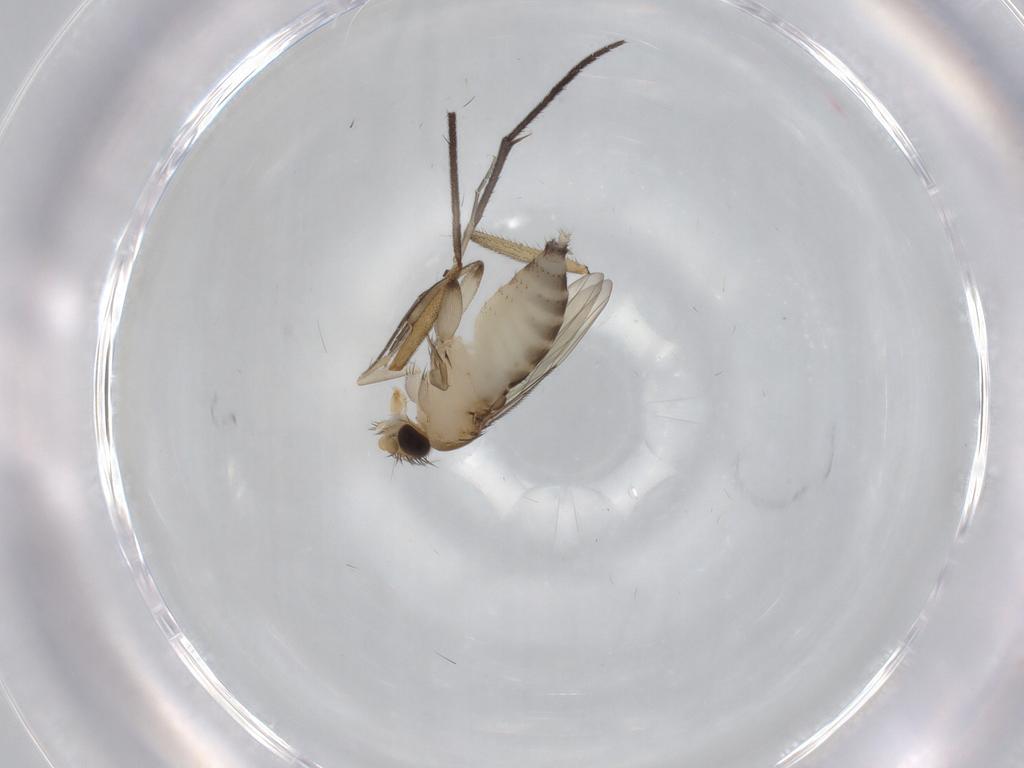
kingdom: Animalia
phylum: Arthropoda
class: Insecta
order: Diptera
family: Phoridae
